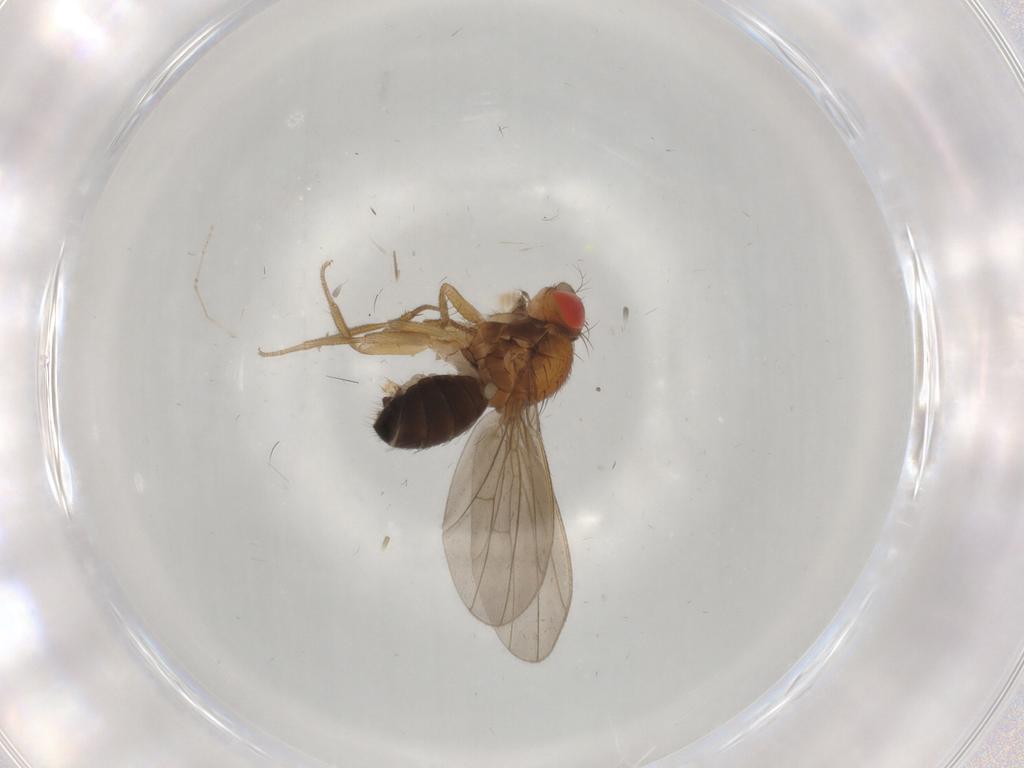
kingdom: Animalia
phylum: Arthropoda
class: Insecta
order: Diptera
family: Drosophilidae
